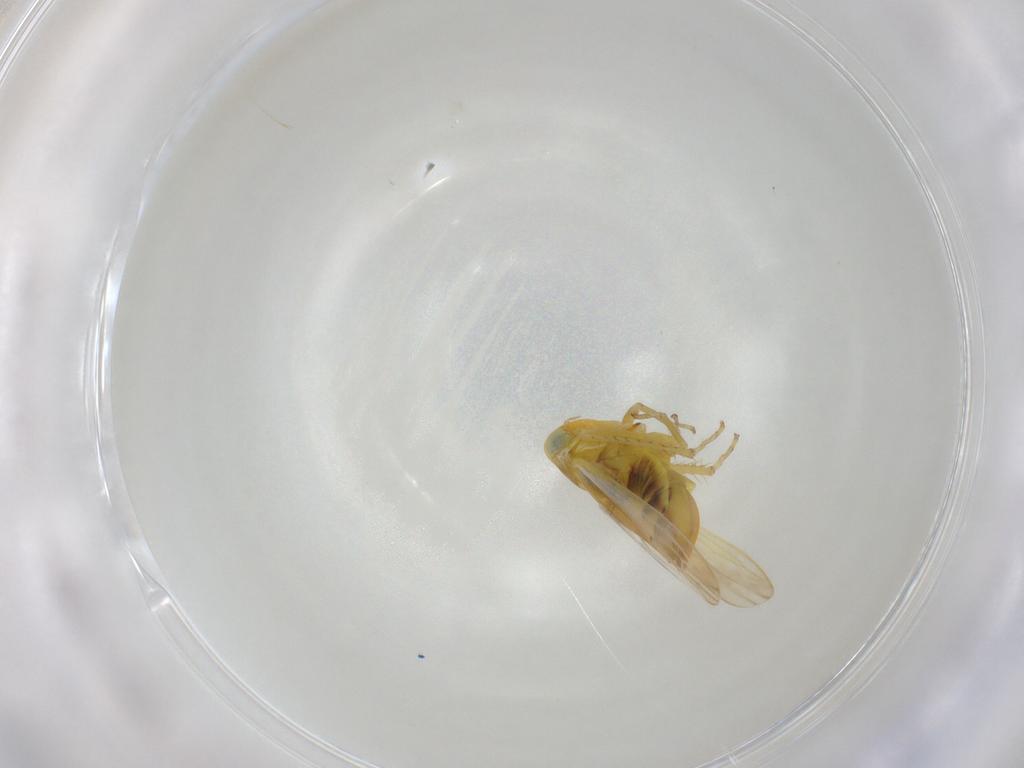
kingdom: Animalia
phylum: Arthropoda
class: Insecta
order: Hemiptera
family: Cicadellidae
